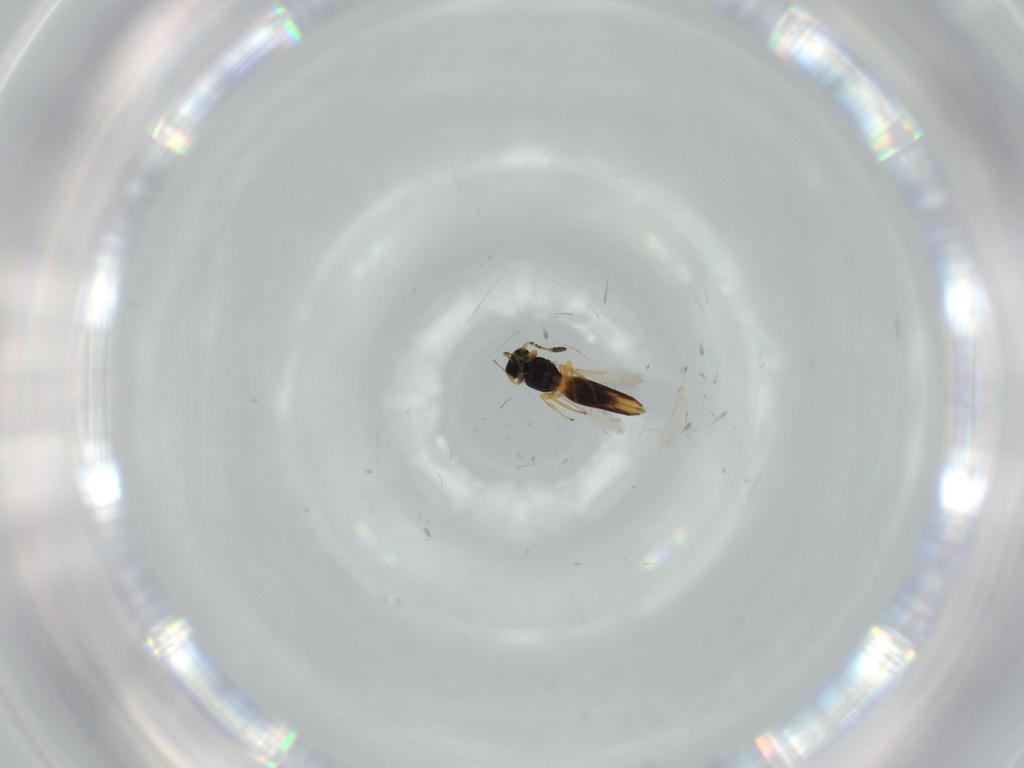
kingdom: Animalia
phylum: Arthropoda
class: Insecta
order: Hymenoptera
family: Scelionidae
